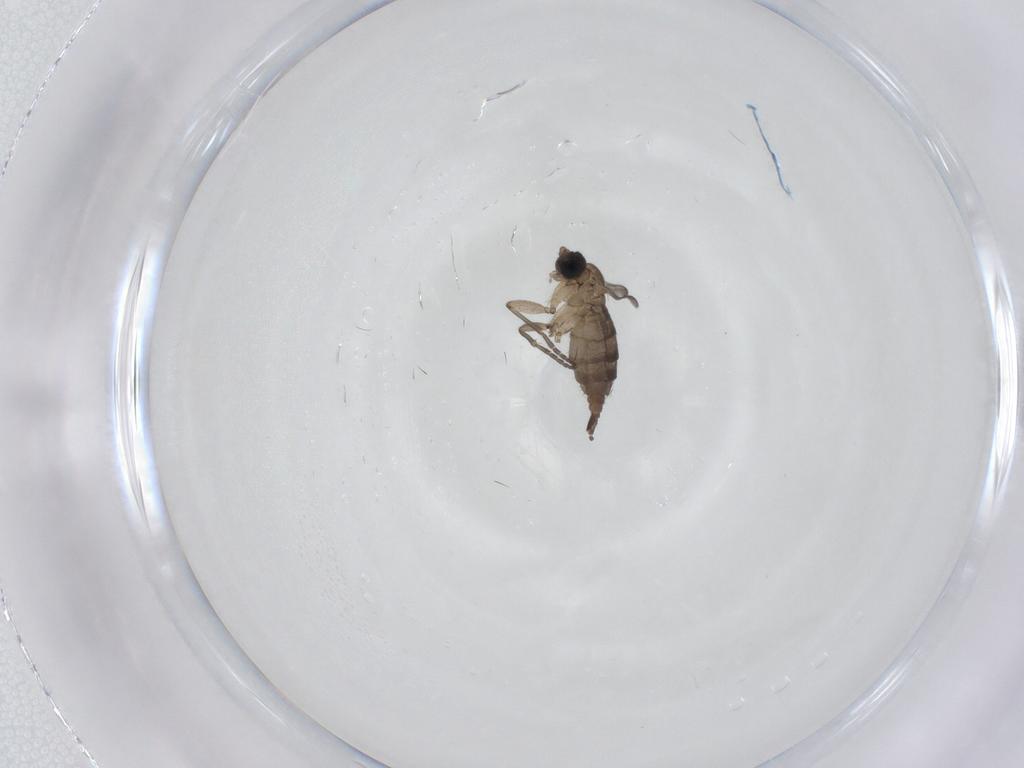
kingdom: Animalia
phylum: Arthropoda
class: Insecta
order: Diptera
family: Sciaridae
